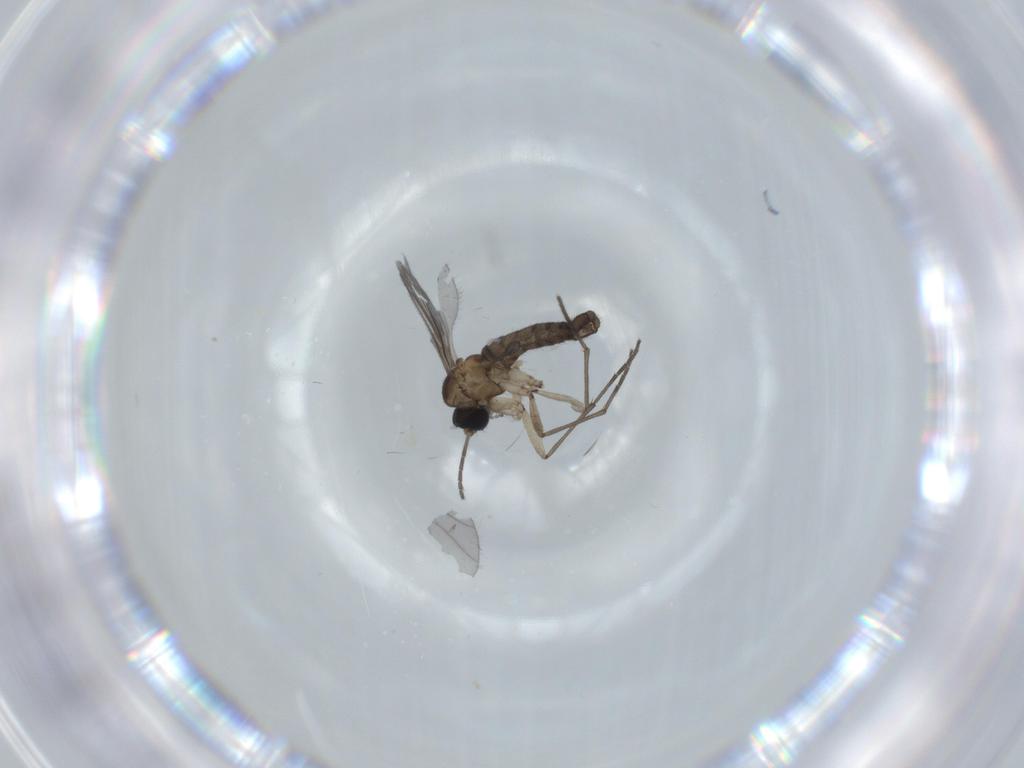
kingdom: Animalia
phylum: Arthropoda
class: Insecta
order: Diptera
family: Sciaridae
